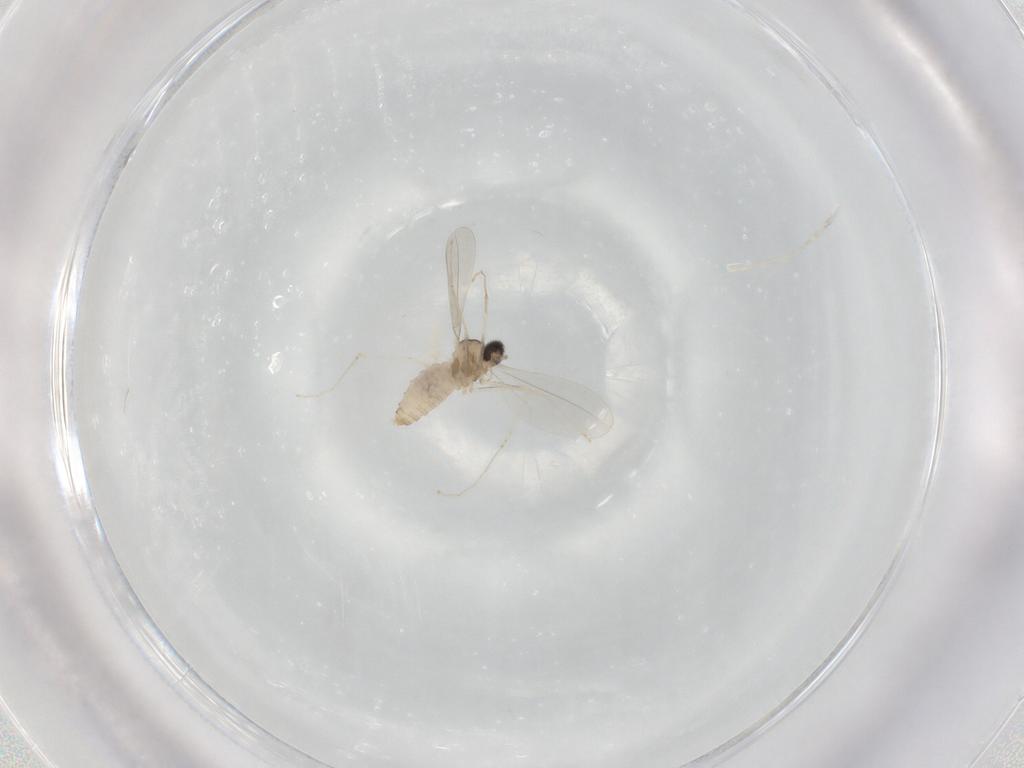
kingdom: Animalia
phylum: Arthropoda
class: Insecta
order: Diptera
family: Cecidomyiidae
